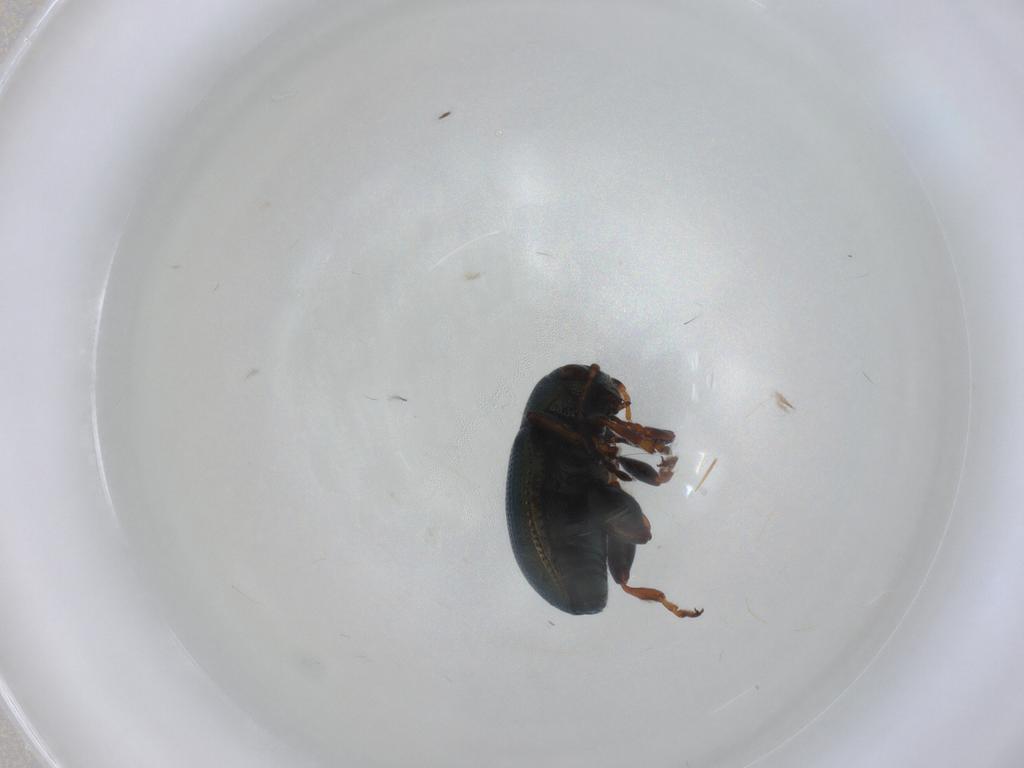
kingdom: Animalia
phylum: Arthropoda
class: Insecta
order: Coleoptera
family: Chrysomelidae
